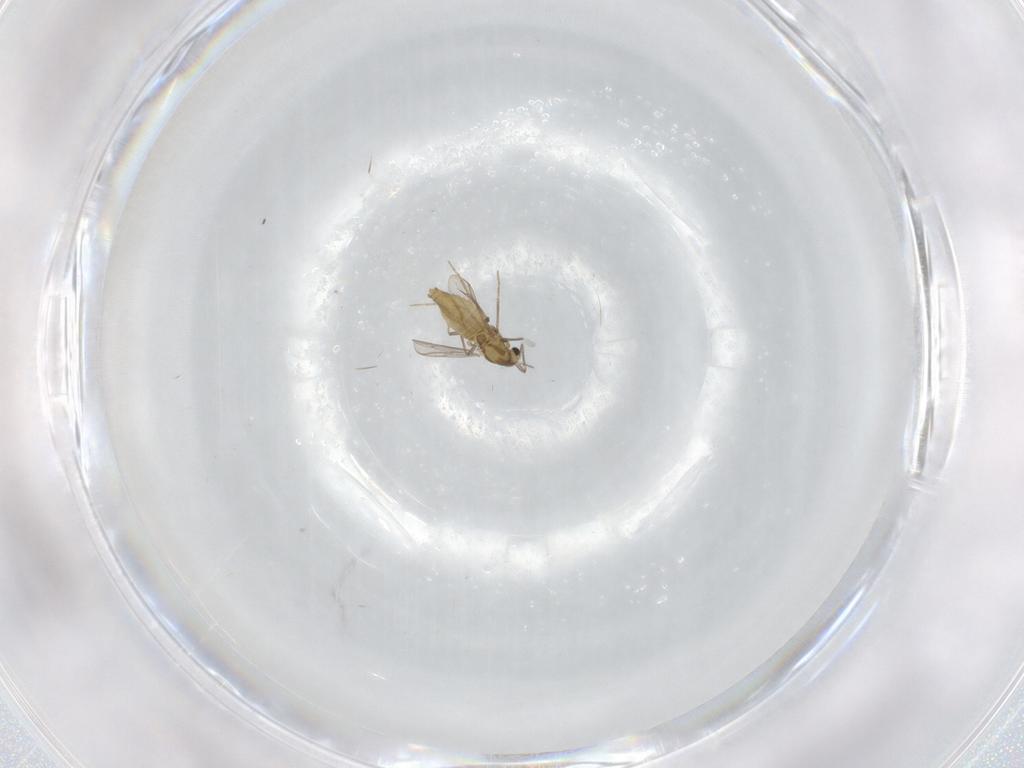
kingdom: Animalia
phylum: Arthropoda
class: Insecta
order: Diptera
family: Chironomidae
